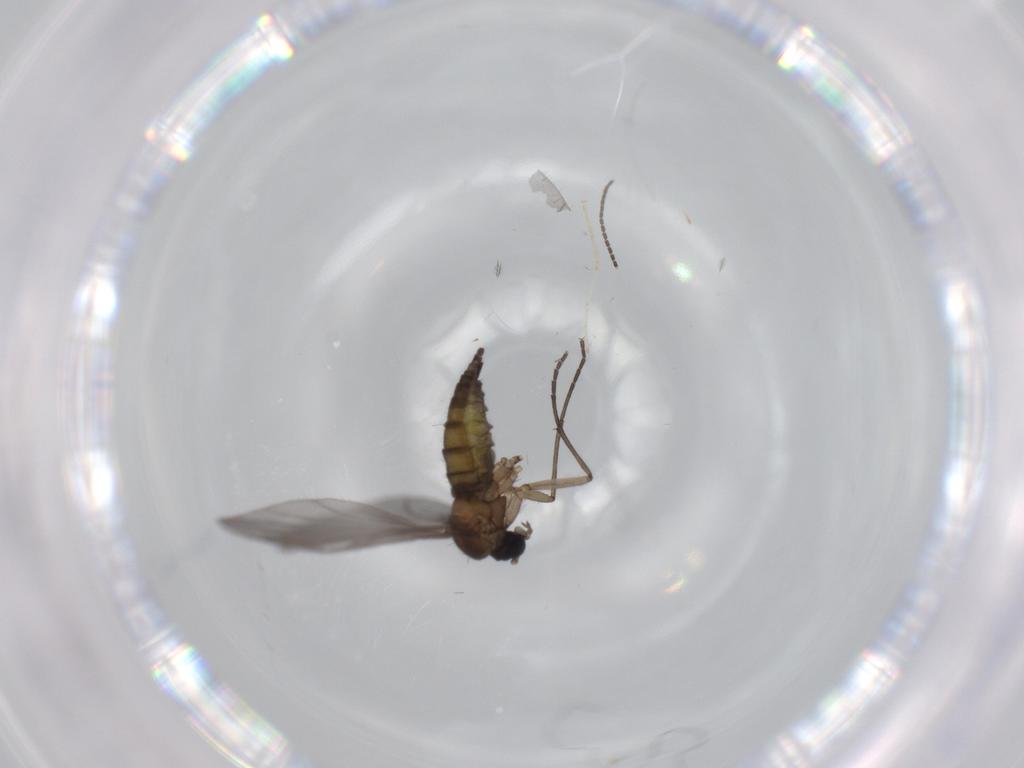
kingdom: Animalia
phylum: Arthropoda
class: Insecta
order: Diptera
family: Sciaridae
